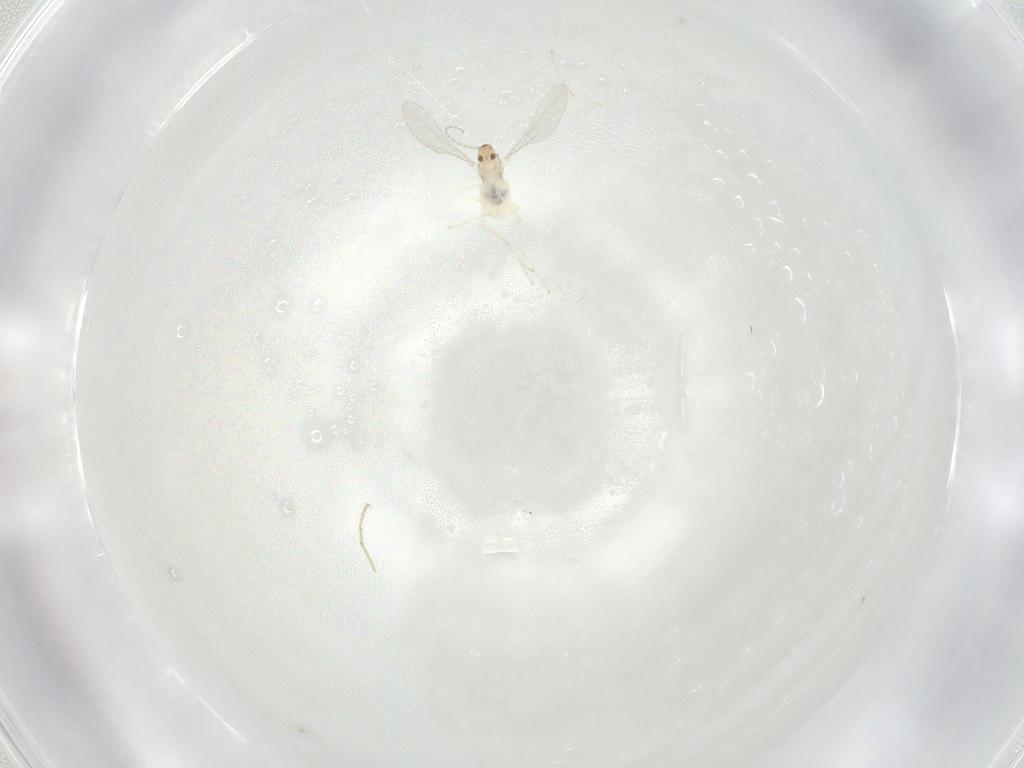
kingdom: Animalia
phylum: Arthropoda
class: Insecta
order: Diptera
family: Cecidomyiidae
